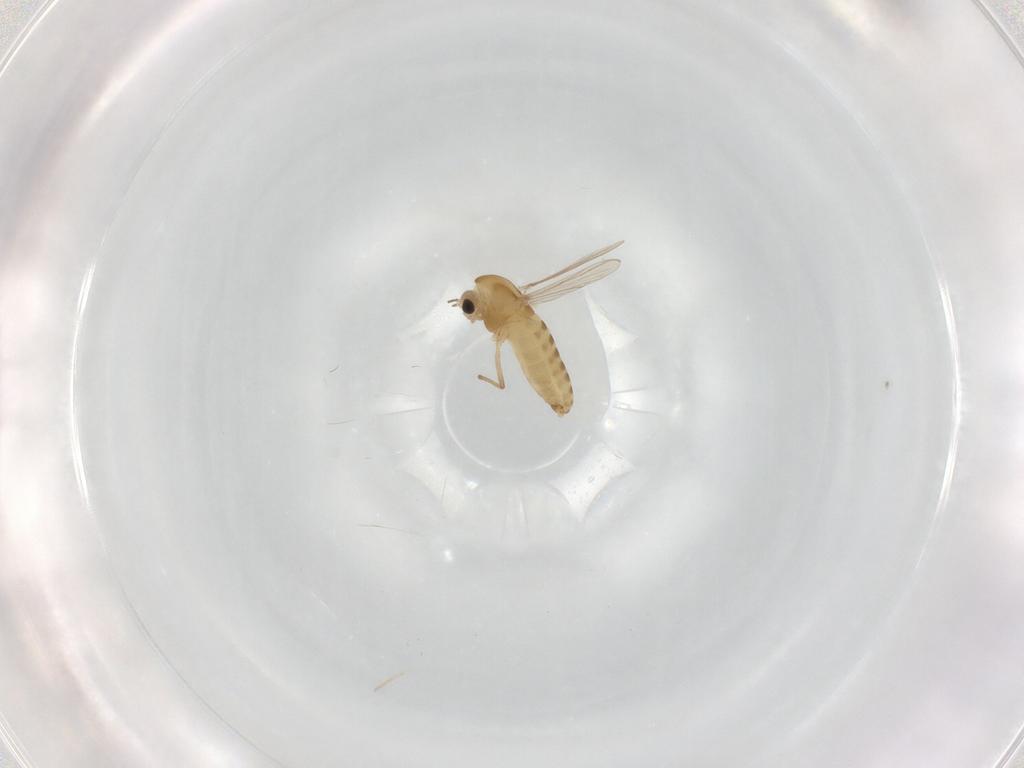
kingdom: Animalia
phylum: Arthropoda
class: Insecta
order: Diptera
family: Chironomidae
